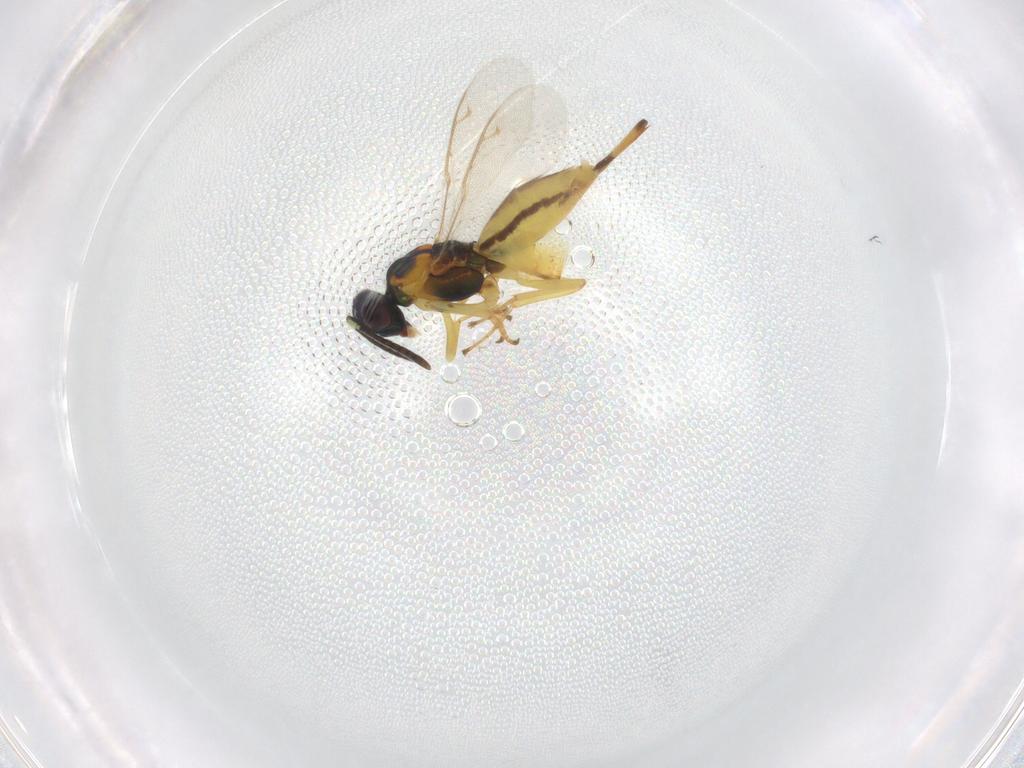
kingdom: Animalia
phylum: Arthropoda
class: Insecta
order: Hymenoptera
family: Eupelmidae
